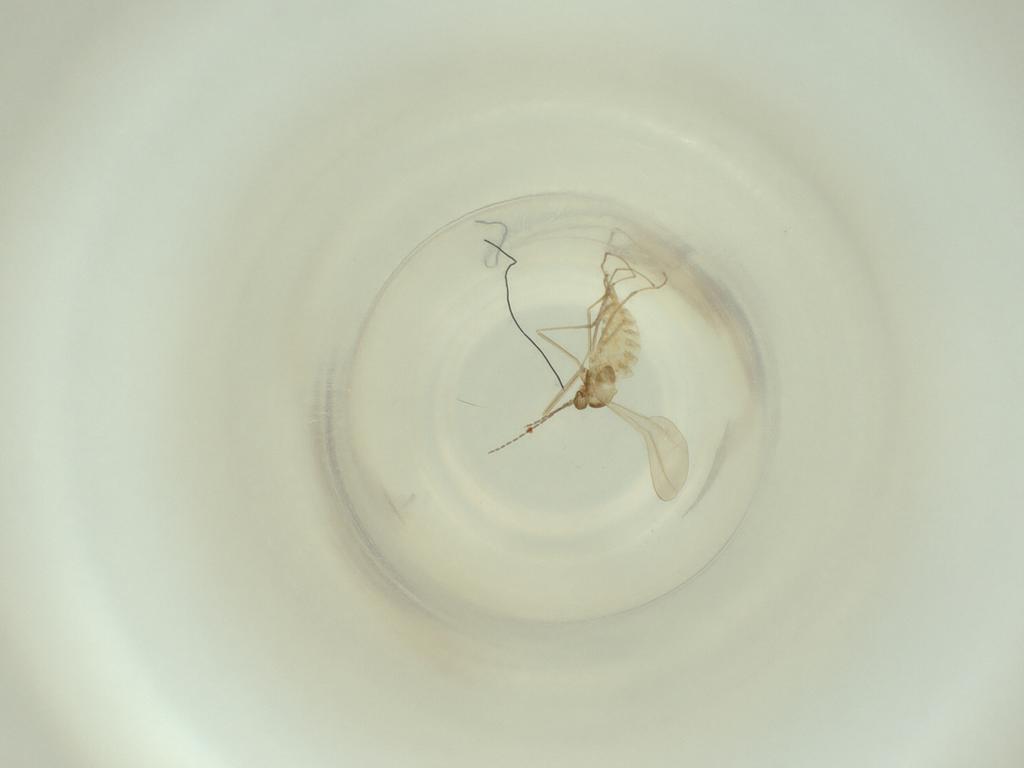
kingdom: Animalia
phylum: Arthropoda
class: Insecta
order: Diptera
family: Cecidomyiidae
